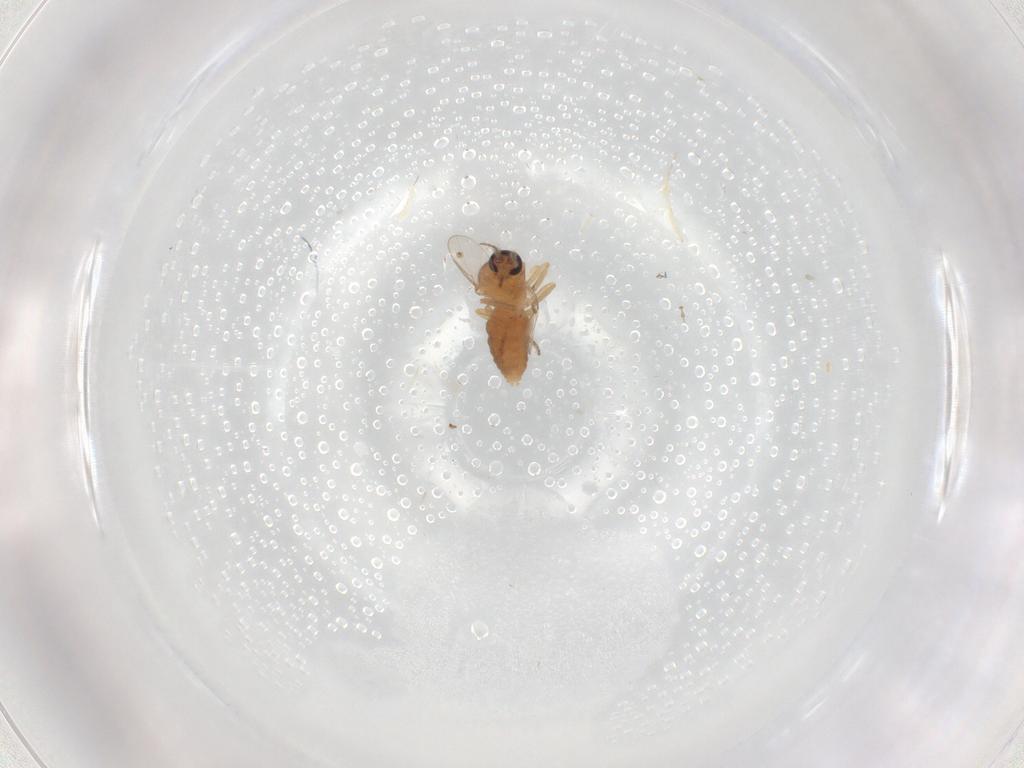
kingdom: Animalia
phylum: Arthropoda
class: Insecta
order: Diptera
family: Ceratopogonidae
